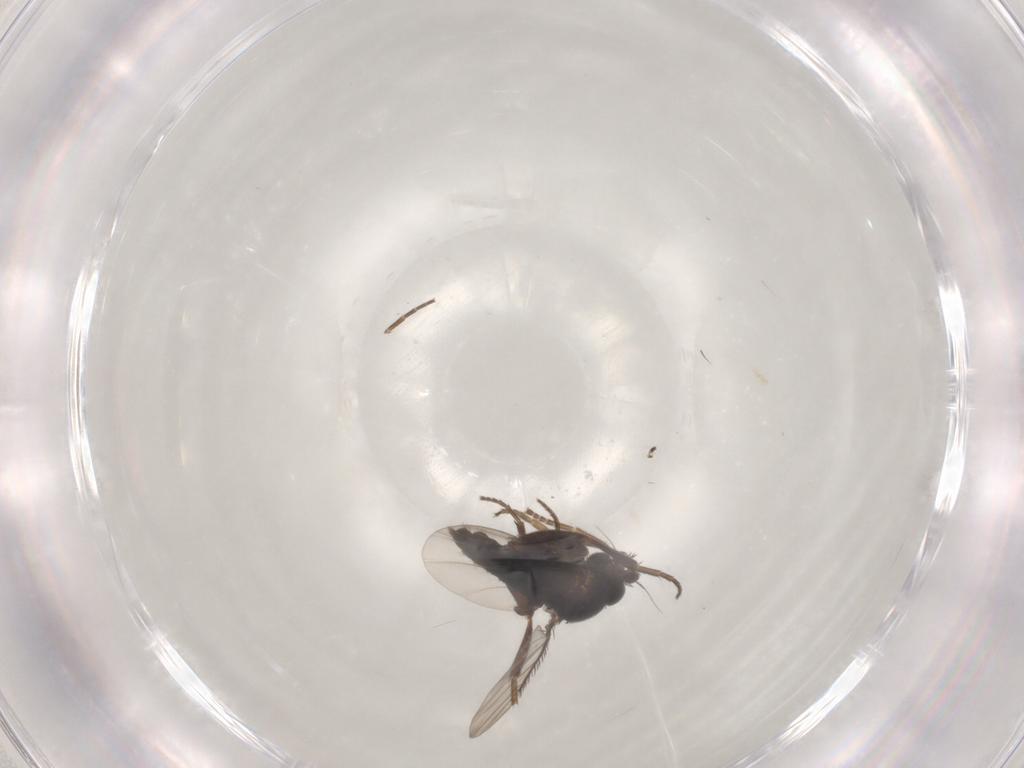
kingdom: Animalia
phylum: Arthropoda
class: Insecta
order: Diptera
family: Phoridae
